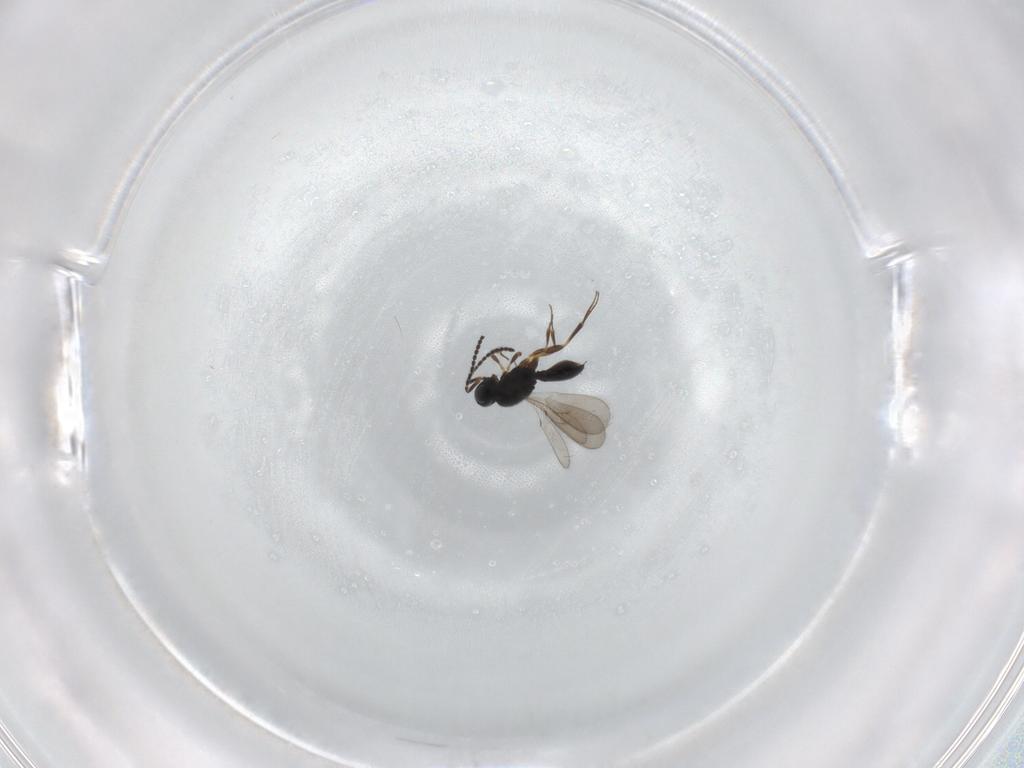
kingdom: Animalia
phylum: Arthropoda
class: Insecta
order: Hymenoptera
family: Scelionidae
